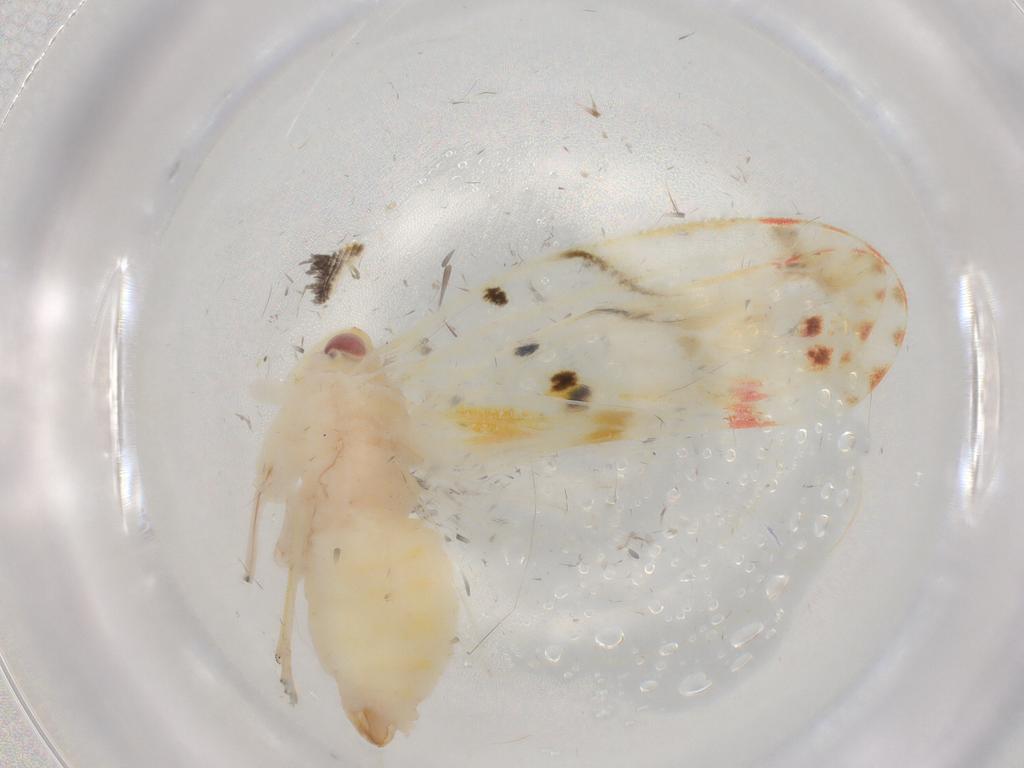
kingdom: Animalia
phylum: Arthropoda
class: Insecta
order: Hemiptera
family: Derbidae
